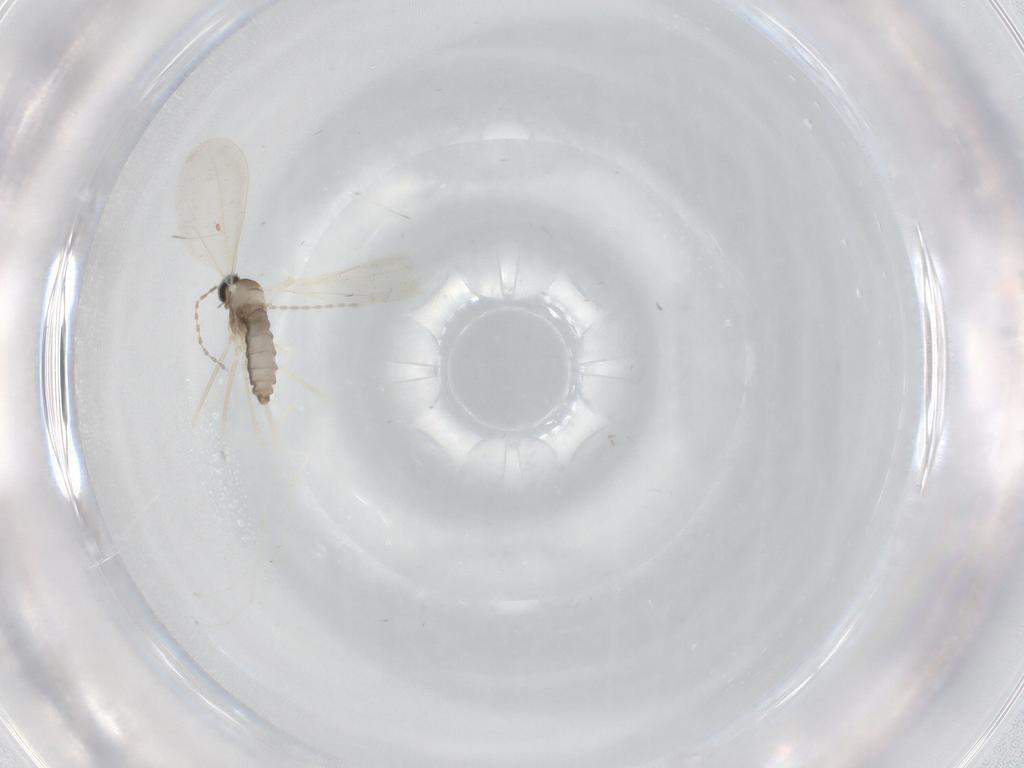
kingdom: Animalia
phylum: Arthropoda
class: Insecta
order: Diptera
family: Cecidomyiidae
